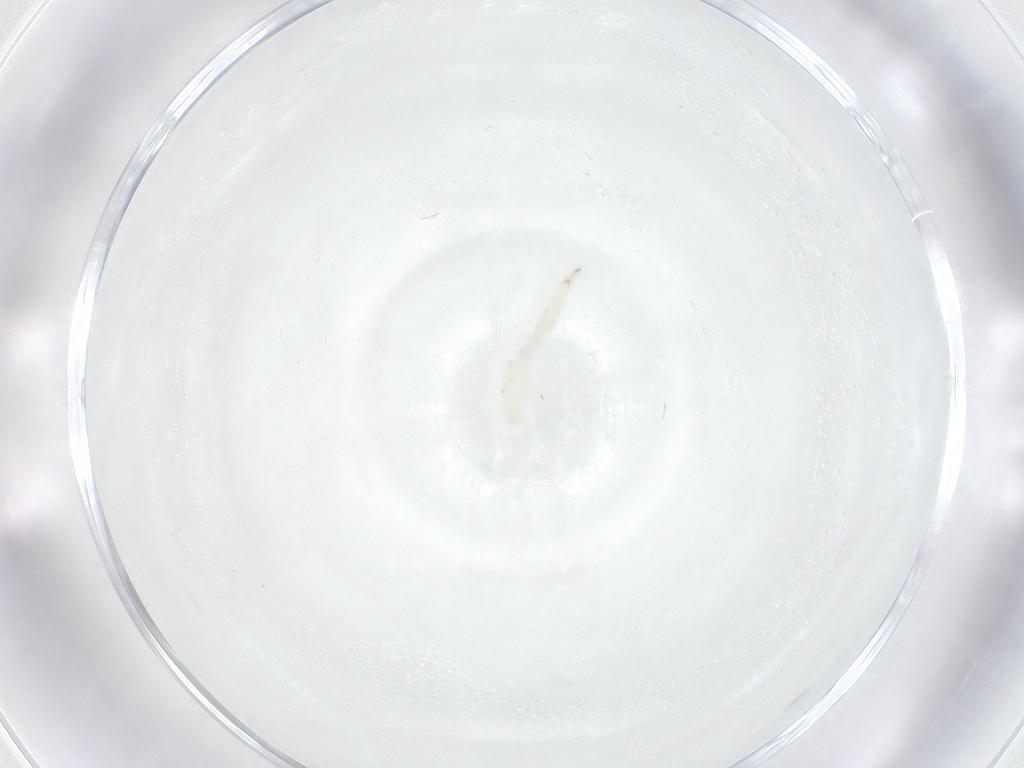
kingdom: Animalia
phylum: Arthropoda
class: Insecta
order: Diptera
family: Sarcophagidae
